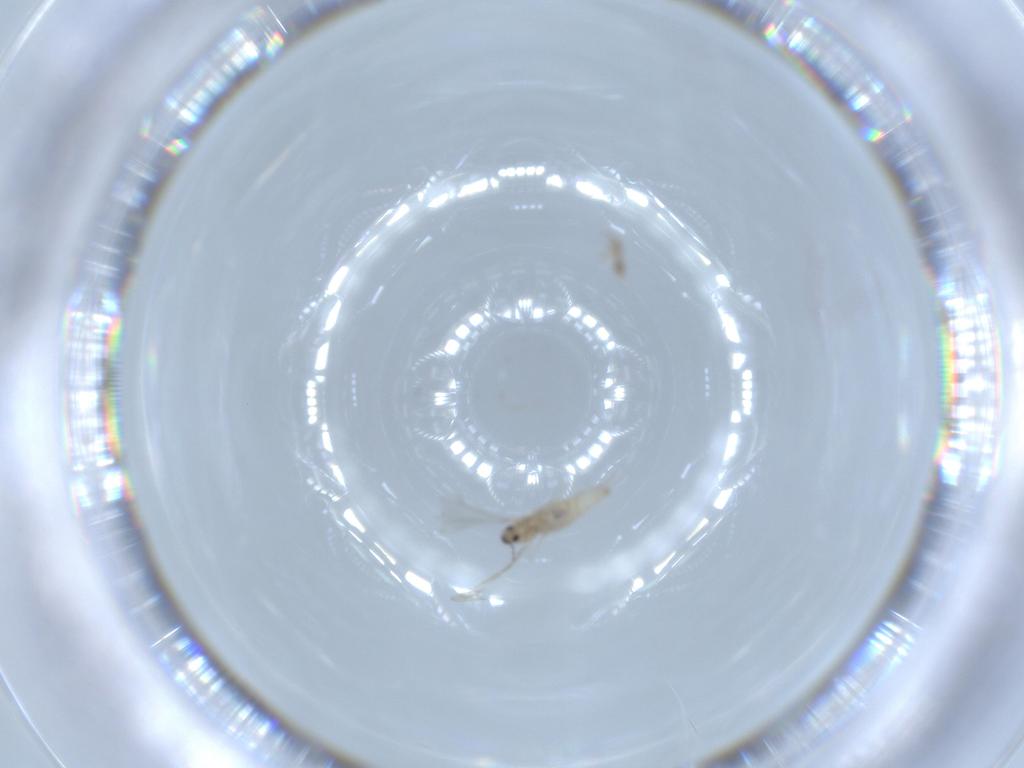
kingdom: Animalia
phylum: Arthropoda
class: Insecta
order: Diptera
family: Cecidomyiidae
